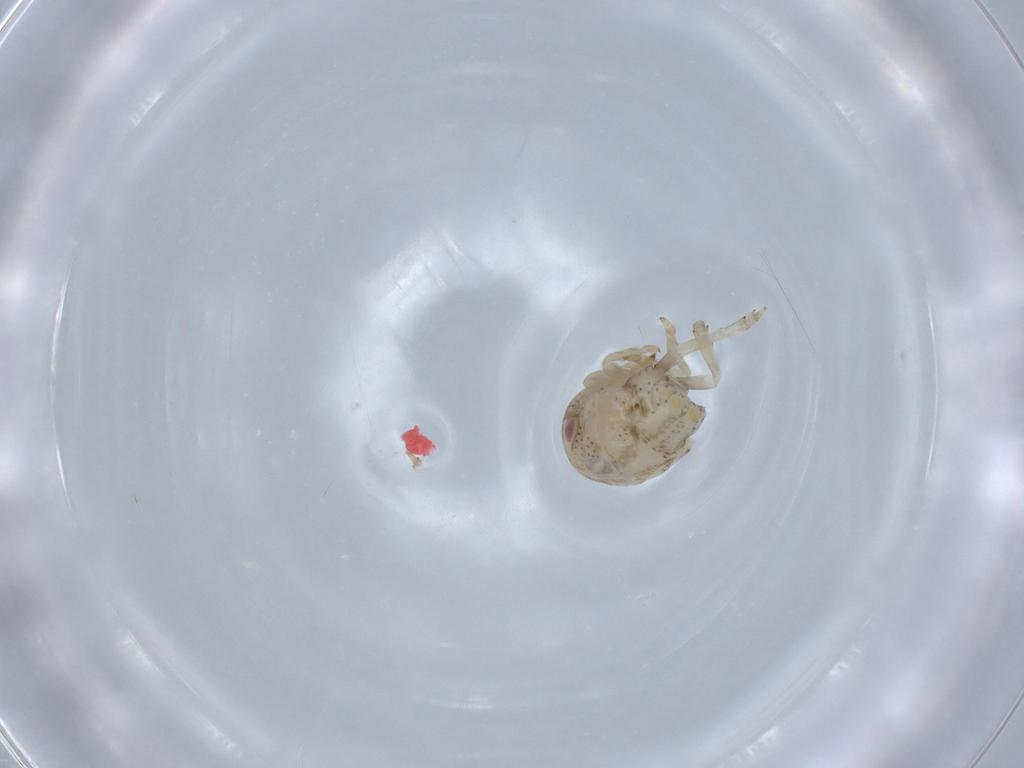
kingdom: Animalia
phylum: Arthropoda
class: Insecta
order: Hemiptera
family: Acanaloniidae
